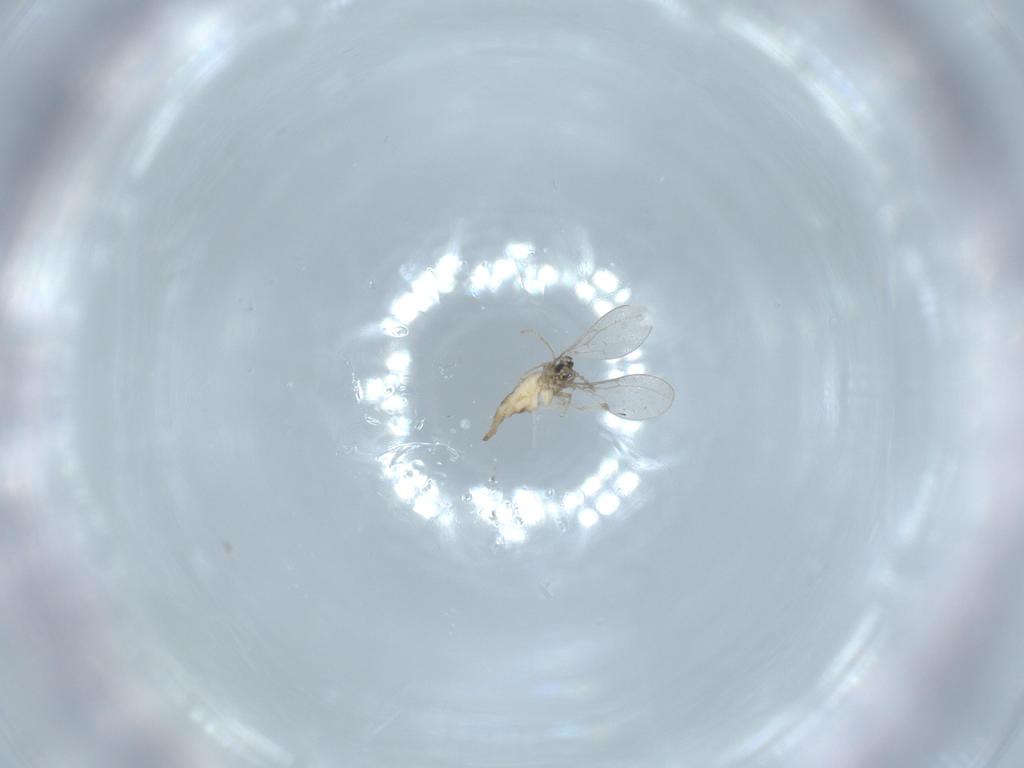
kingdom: Animalia
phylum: Arthropoda
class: Insecta
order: Diptera
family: Cecidomyiidae
